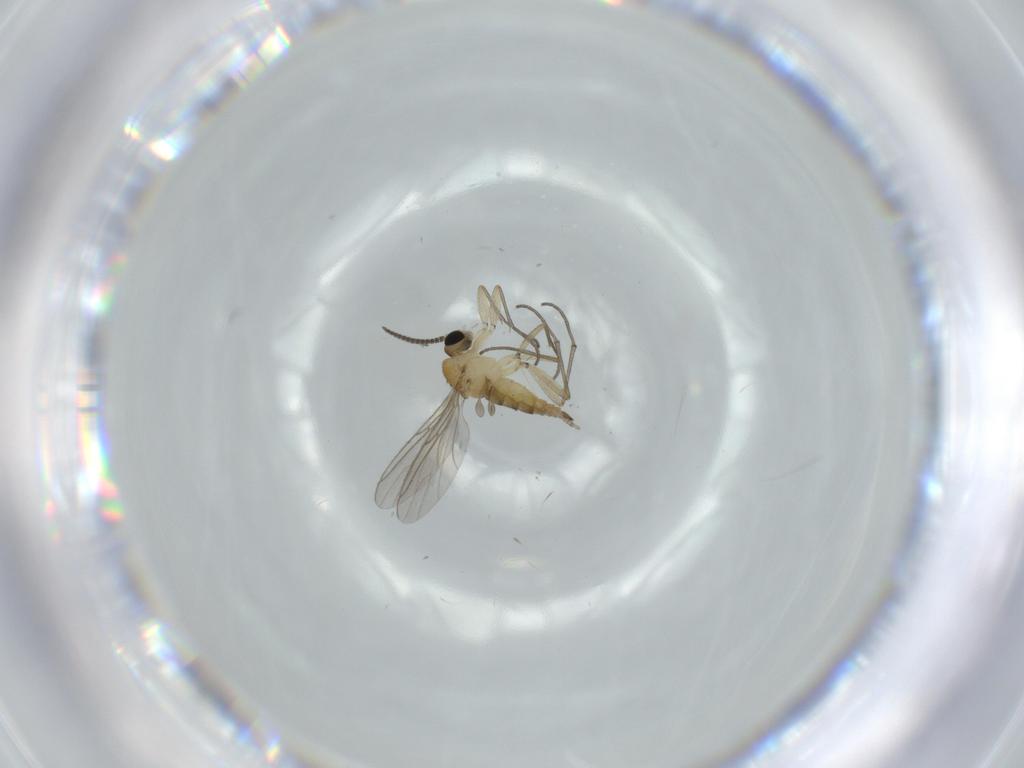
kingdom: Animalia
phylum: Arthropoda
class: Insecta
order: Diptera
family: Sciaridae
